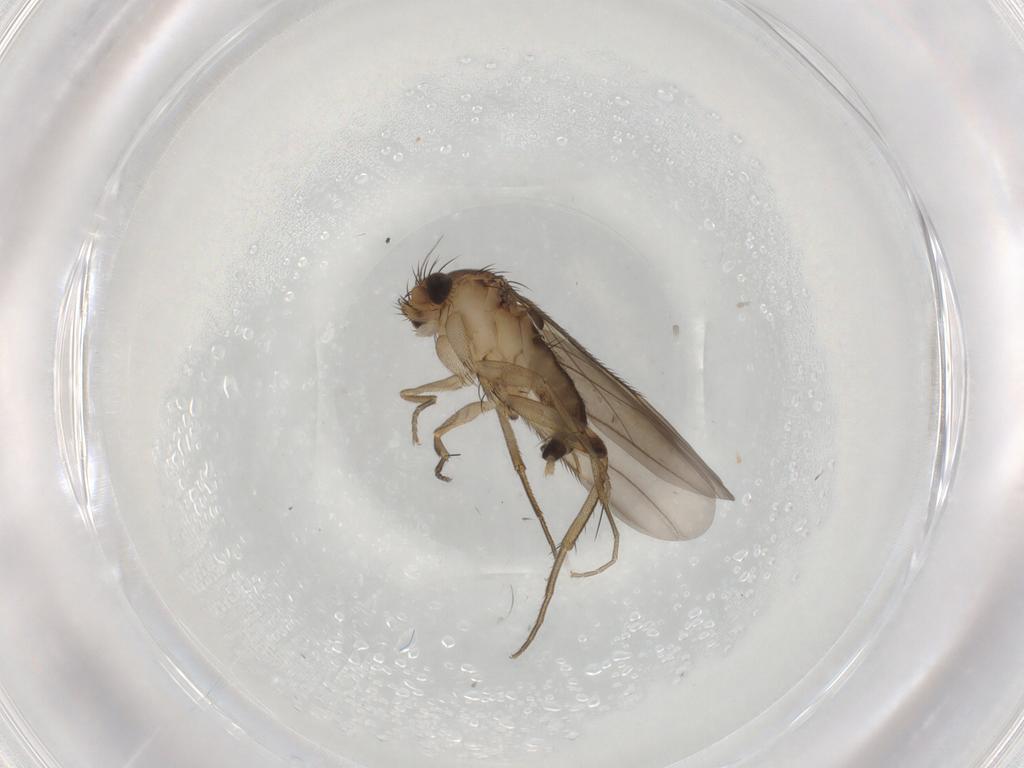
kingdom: Animalia
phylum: Arthropoda
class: Insecta
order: Diptera
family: Phoridae
